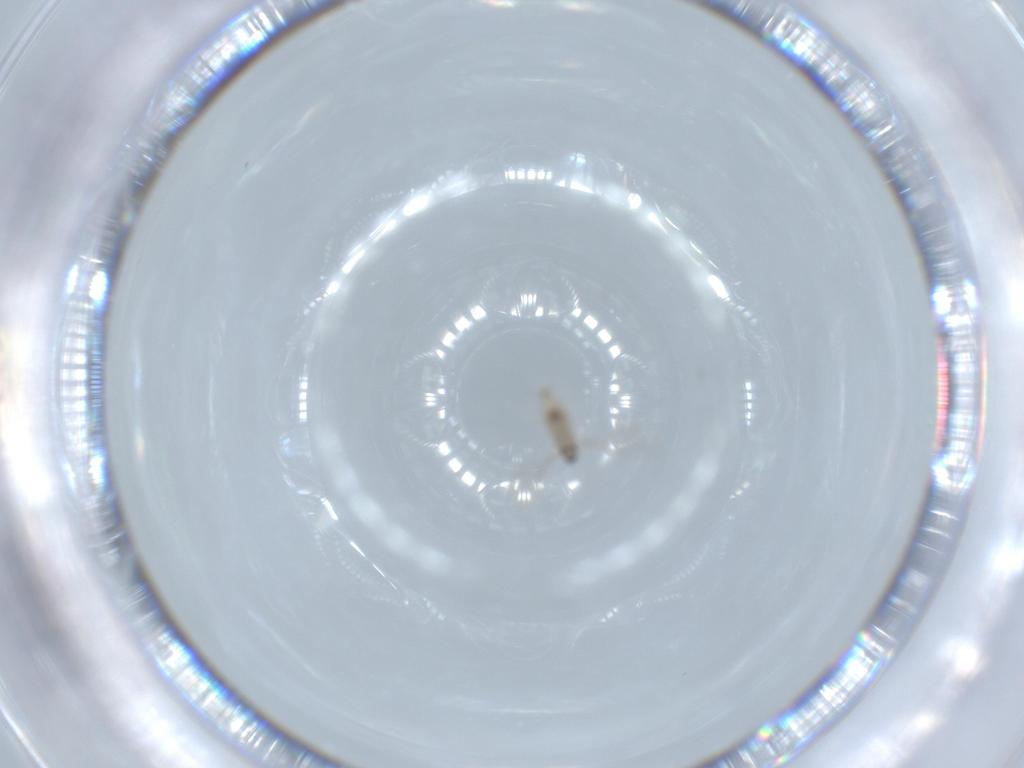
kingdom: Animalia
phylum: Arthropoda
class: Insecta
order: Diptera
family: Cecidomyiidae
